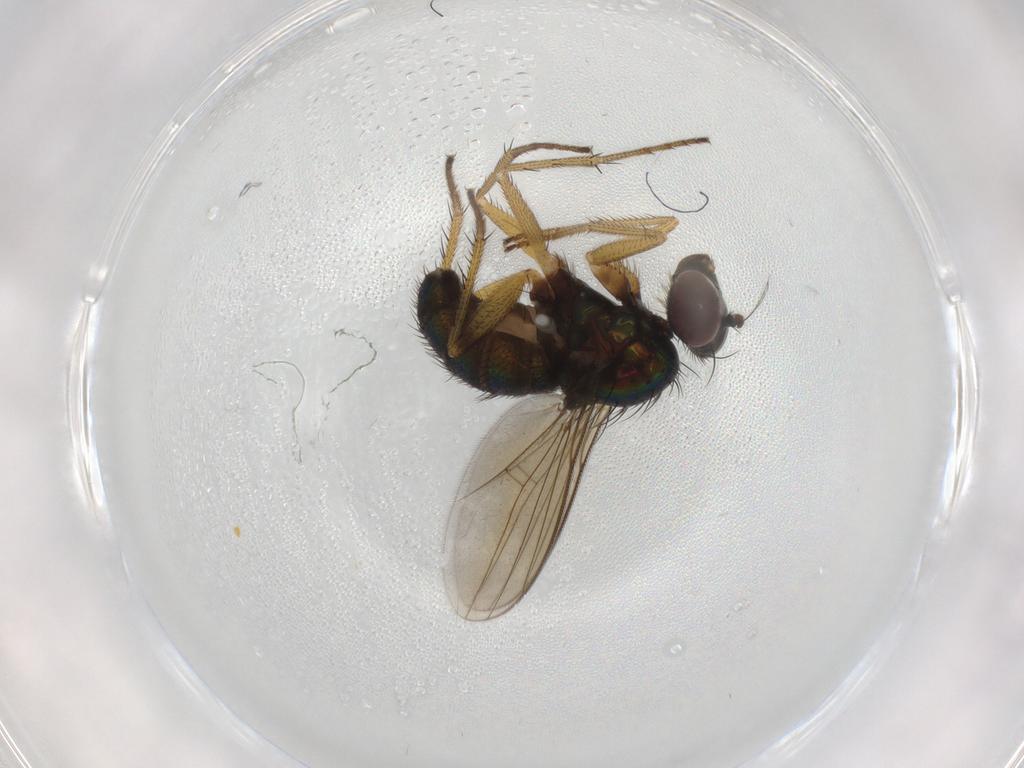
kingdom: Animalia
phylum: Arthropoda
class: Insecta
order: Diptera
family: Dolichopodidae
